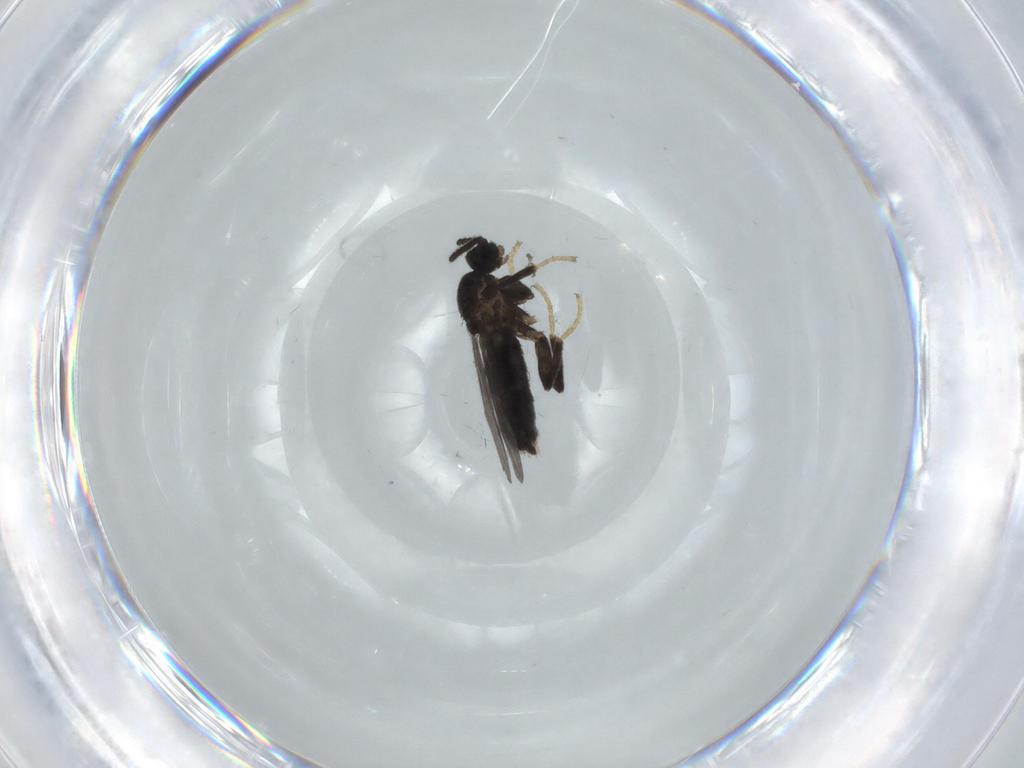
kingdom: Animalia
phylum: Arthropoda
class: Insecta
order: Diptera
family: Scatopsidae
